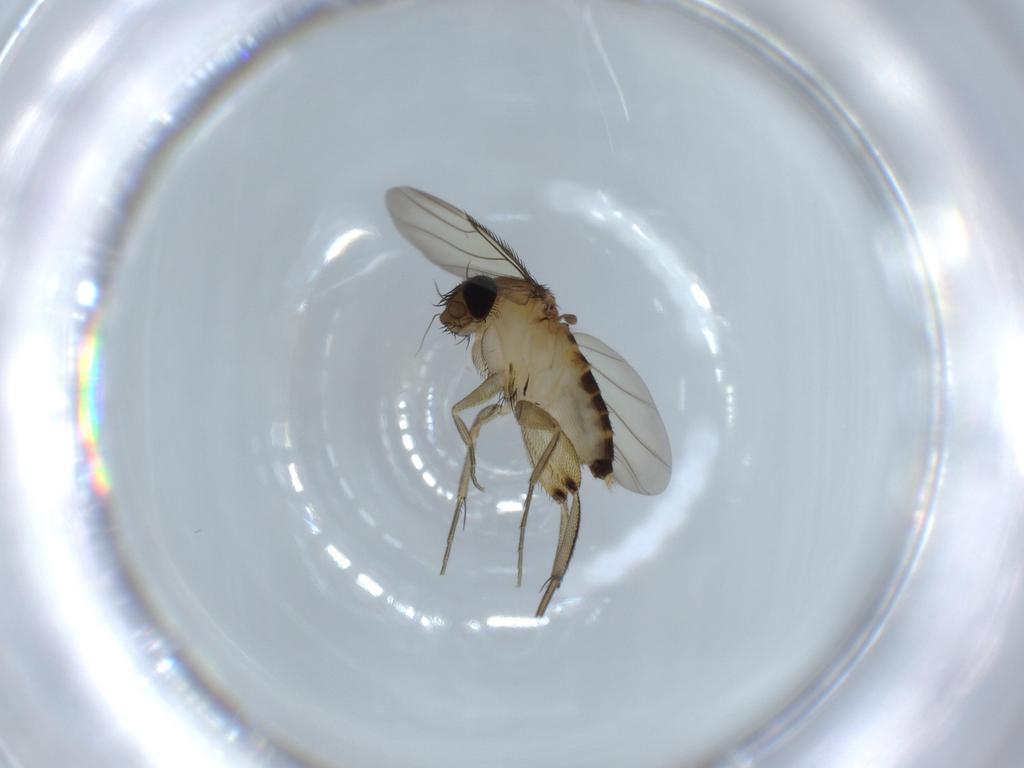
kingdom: Animalia
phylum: Arthropoda
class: Insecta
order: Diptera
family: Phoridae
